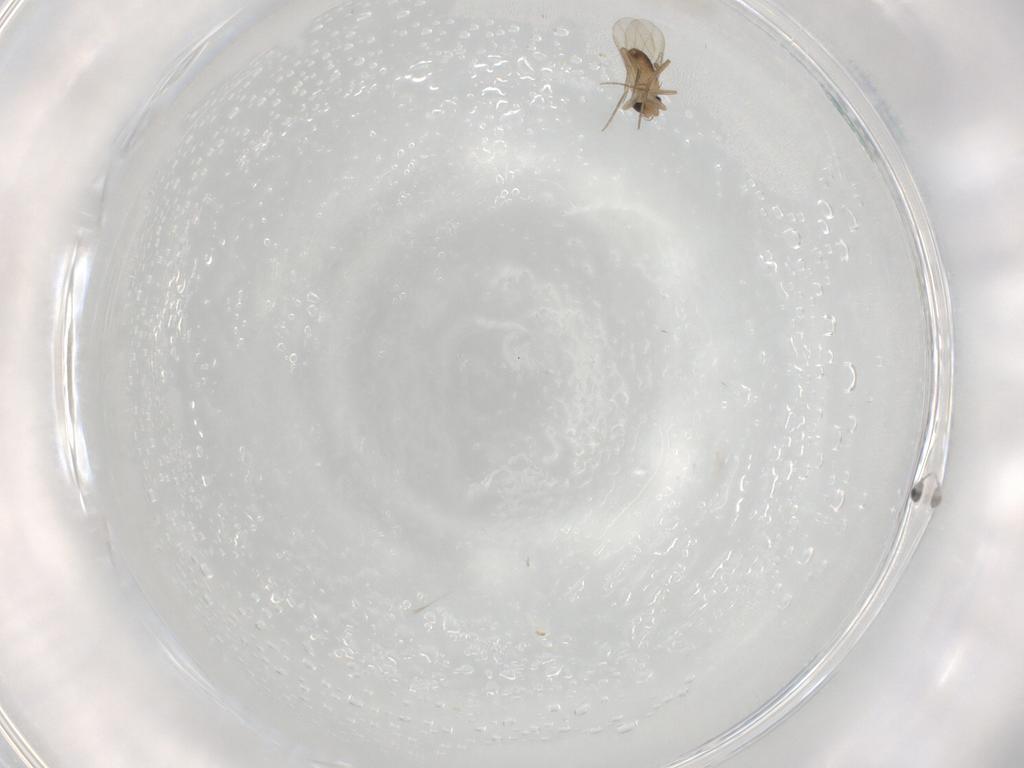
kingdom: Animalia
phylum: Arthropoda
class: Insecta
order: Diptera
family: Phoridae
